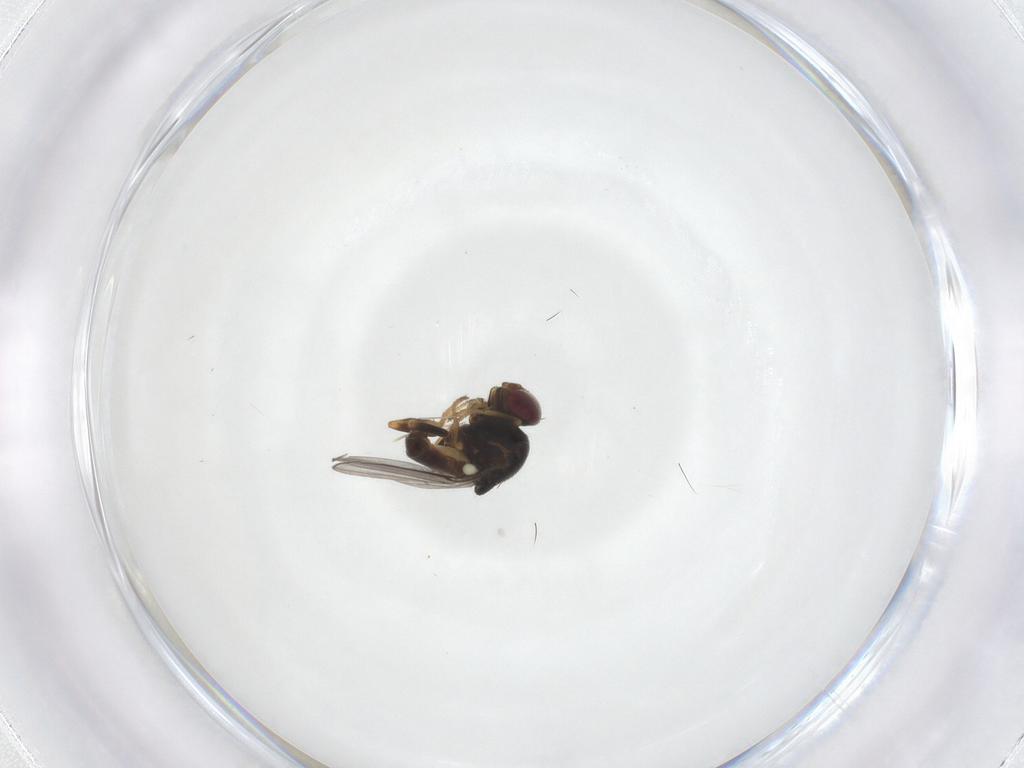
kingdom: Animalia
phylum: Arthropoda
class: Insecta
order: Diptera
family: Chloropidae
